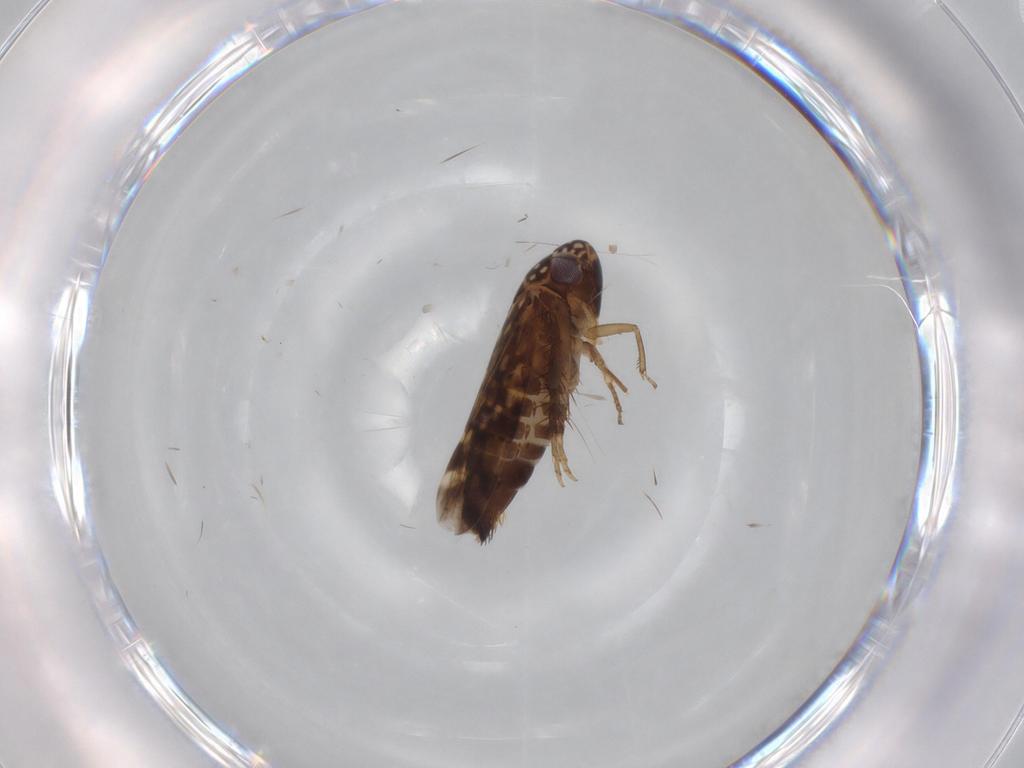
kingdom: Animalia
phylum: Arthropoda
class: Insecta
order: Hemiptera
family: Cicadellidae
